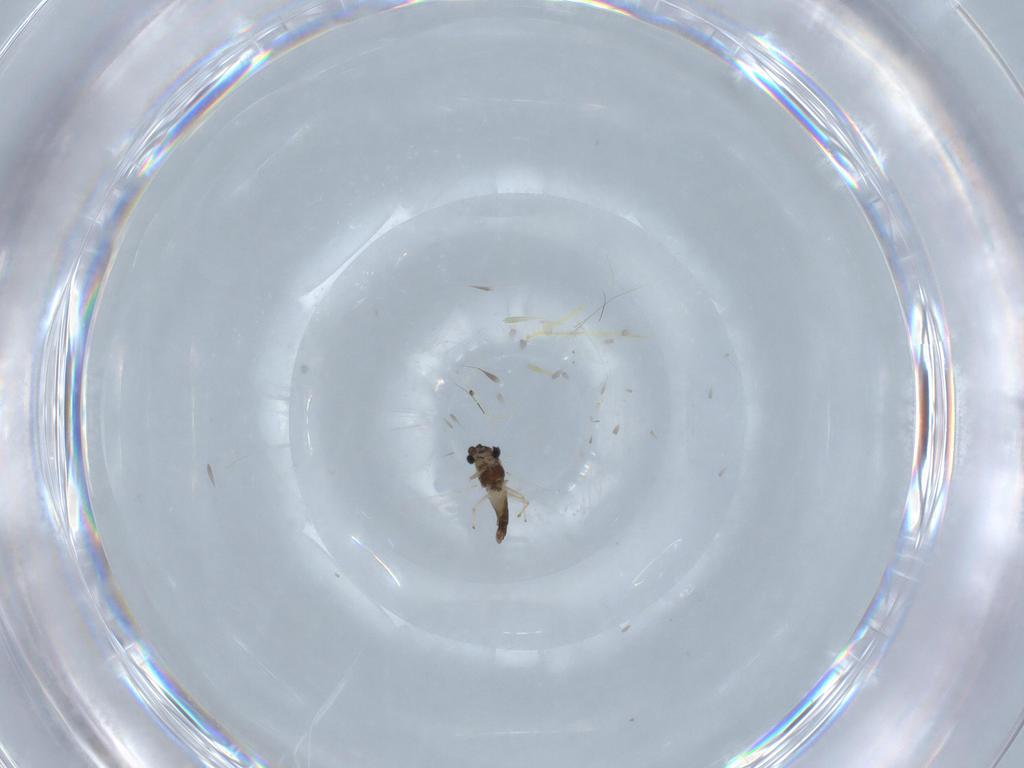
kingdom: Animalia
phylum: Arthropoda
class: Insecta
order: Diptera
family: Chironomidae
